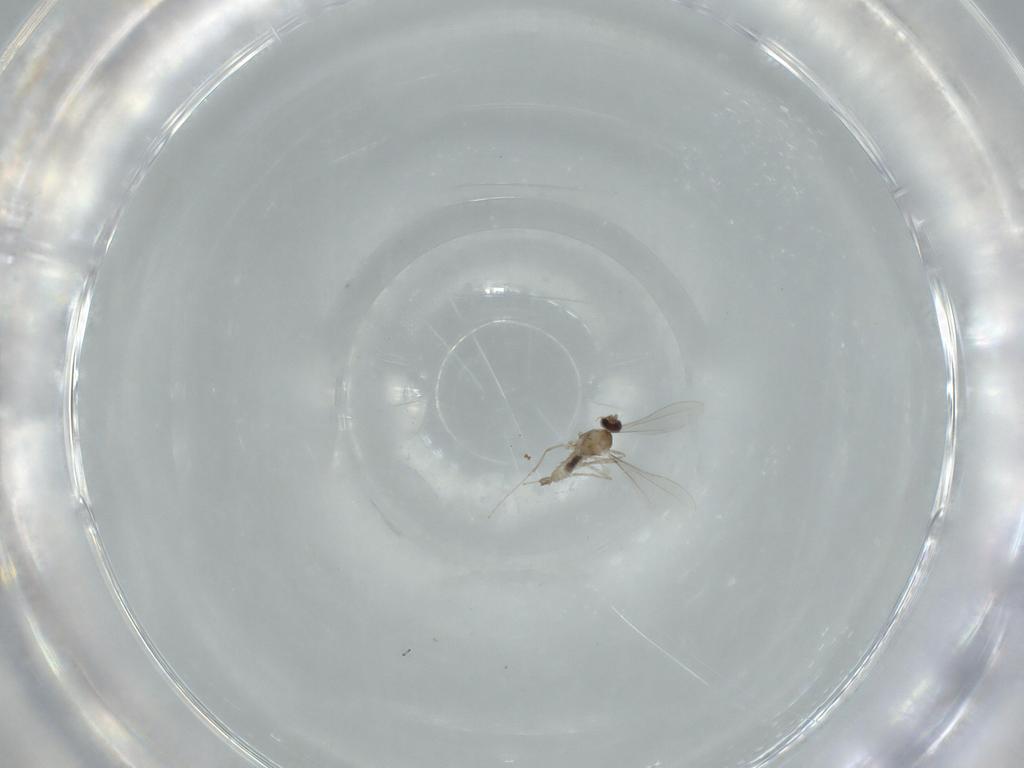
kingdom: Animalia
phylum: Arthropoda
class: Insecta
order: Diptera
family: Cecidomyiidae
